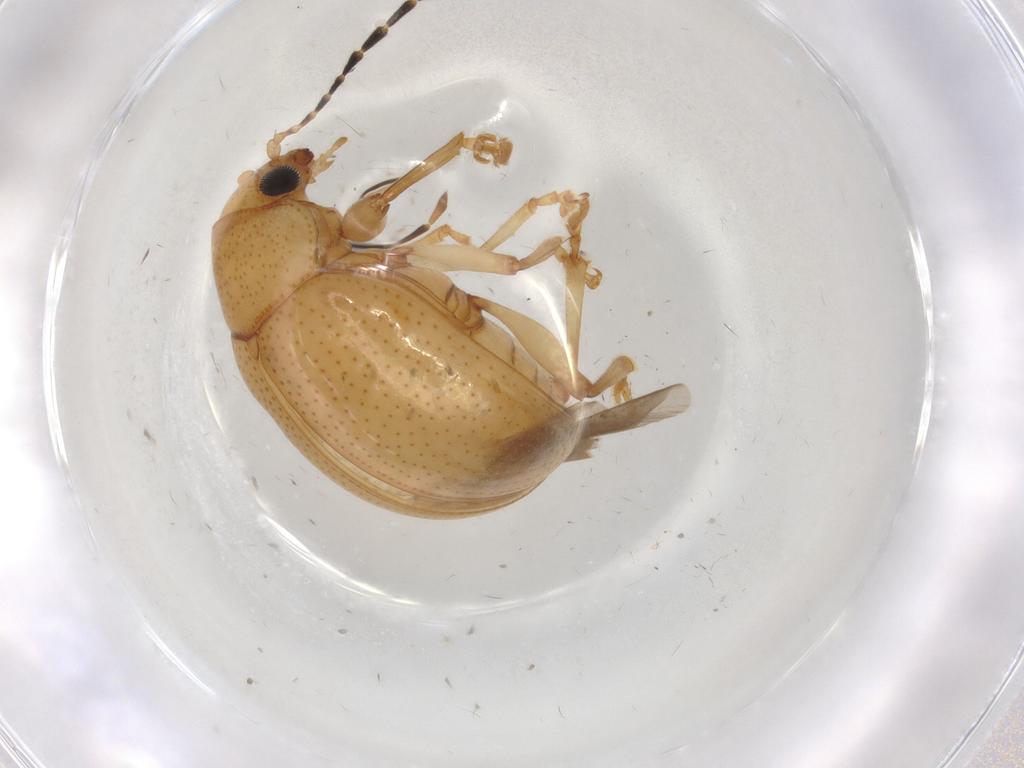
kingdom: Animalia
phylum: Arthropoda
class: Insecta
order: Coleoptera
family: Chrysomelidae
